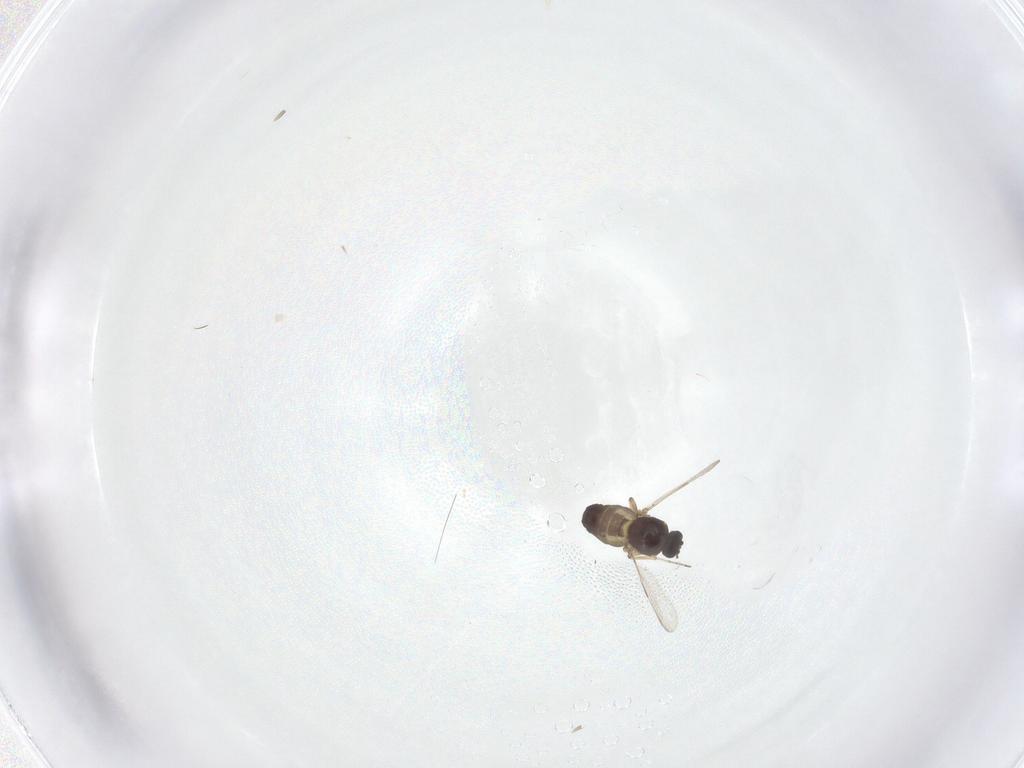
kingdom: Animalia
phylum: Arthropoda
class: Insecta
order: Diptera
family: Ceratopogonidae
